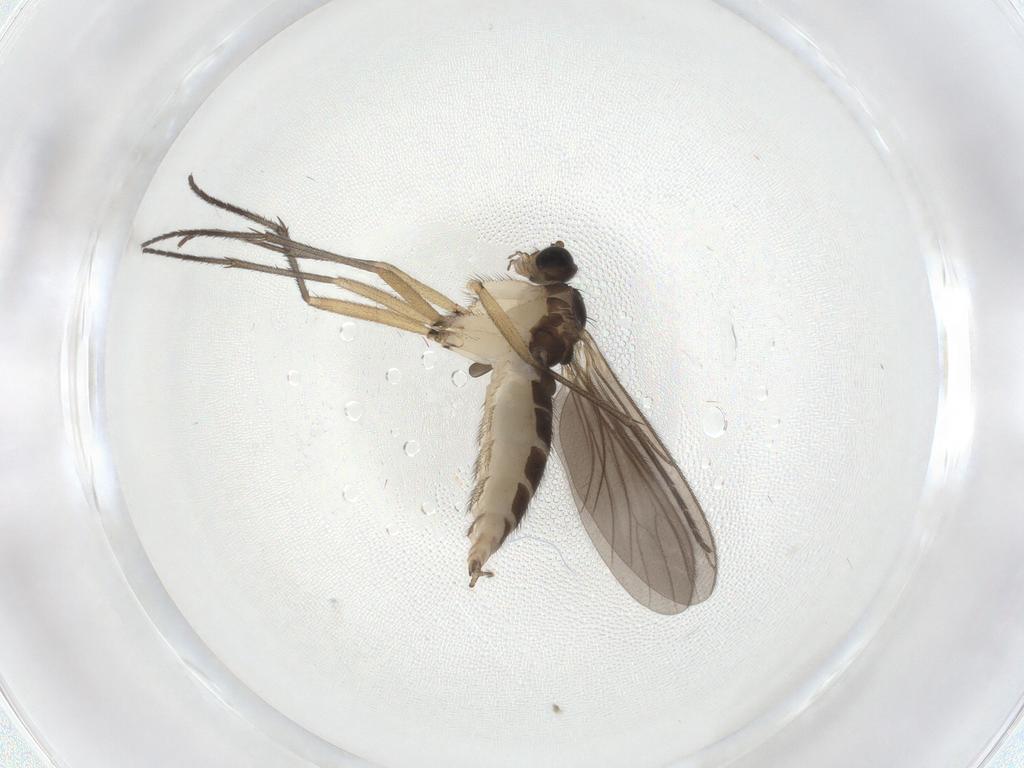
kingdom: Animalia
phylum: Arthropoda
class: Insecta
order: Diptera
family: Sciaridae
